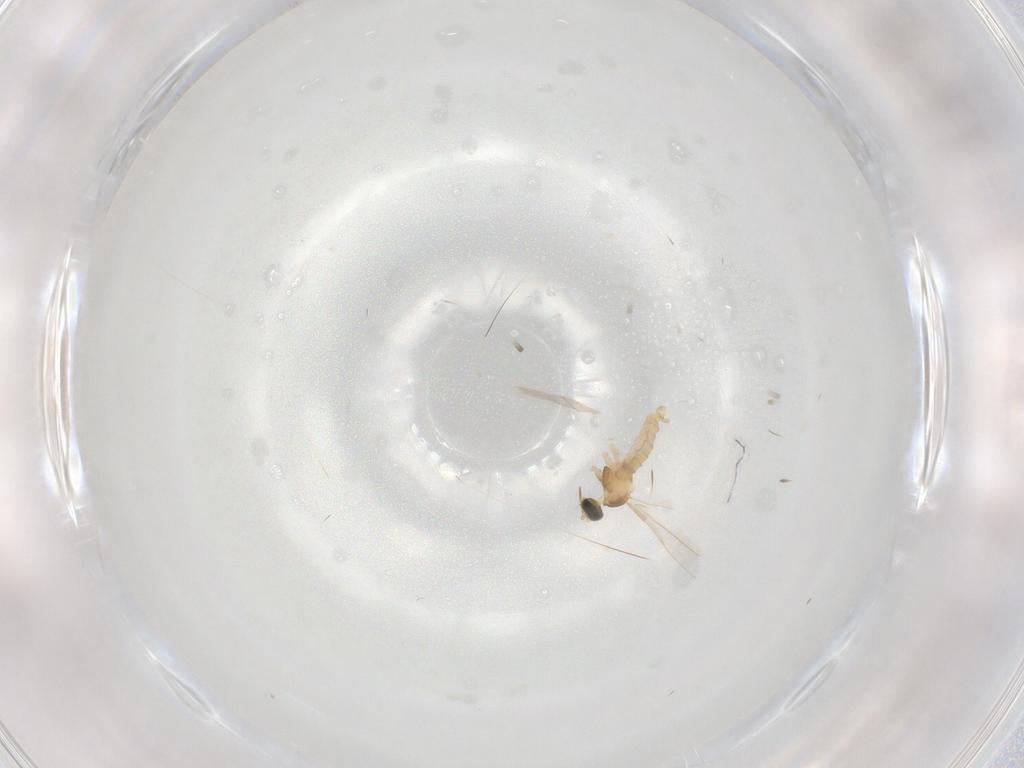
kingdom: Animalia
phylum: Arthropoda
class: Insecta
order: Diptera
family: Cecidomyiidae
